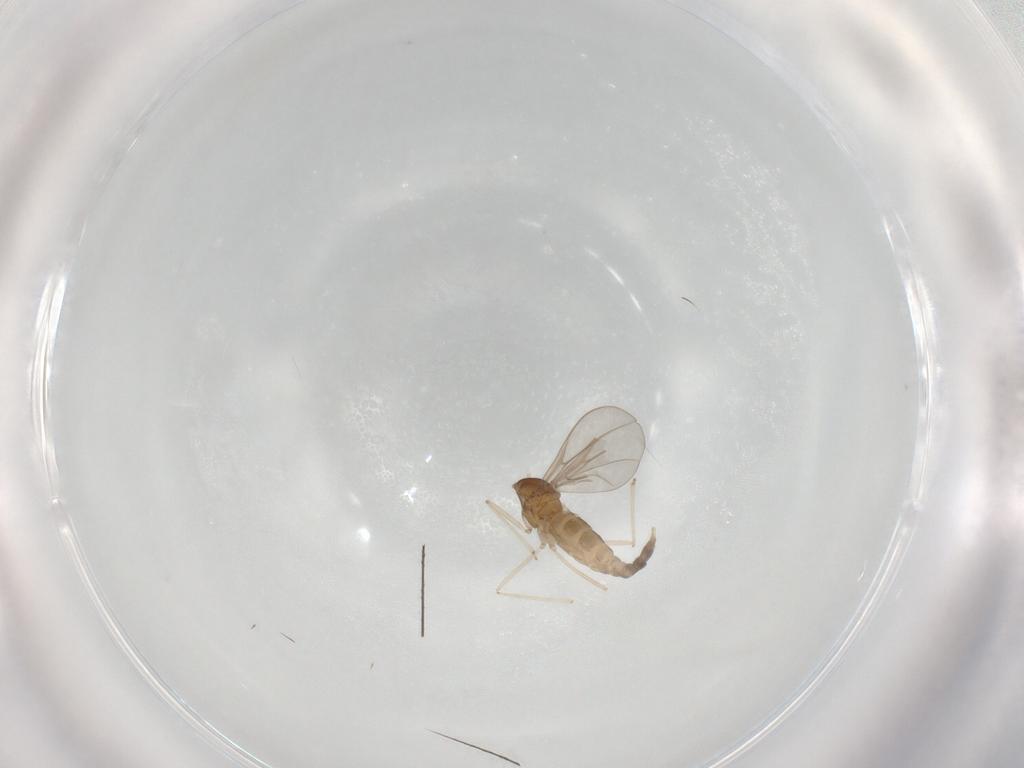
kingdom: Animalia
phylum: Arthropoda
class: Insecta
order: Diptera
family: Cecidomyiidae
